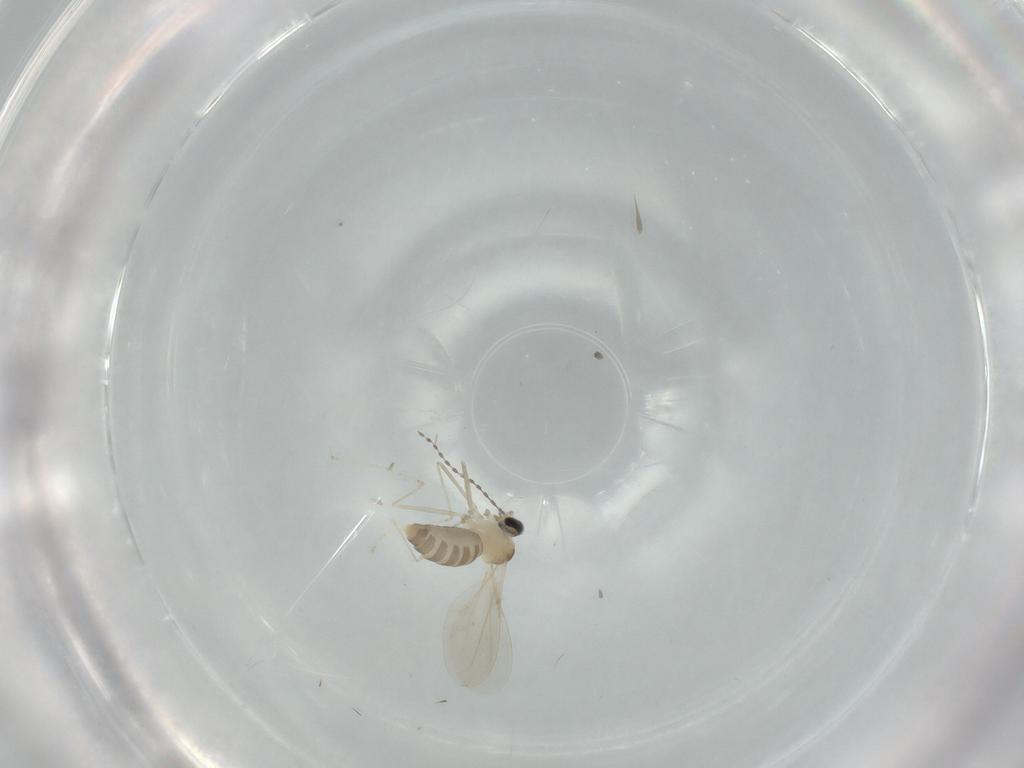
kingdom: Animalia
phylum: Arthropoda
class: Insecta
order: Diptera
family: Cecidomyiidae
